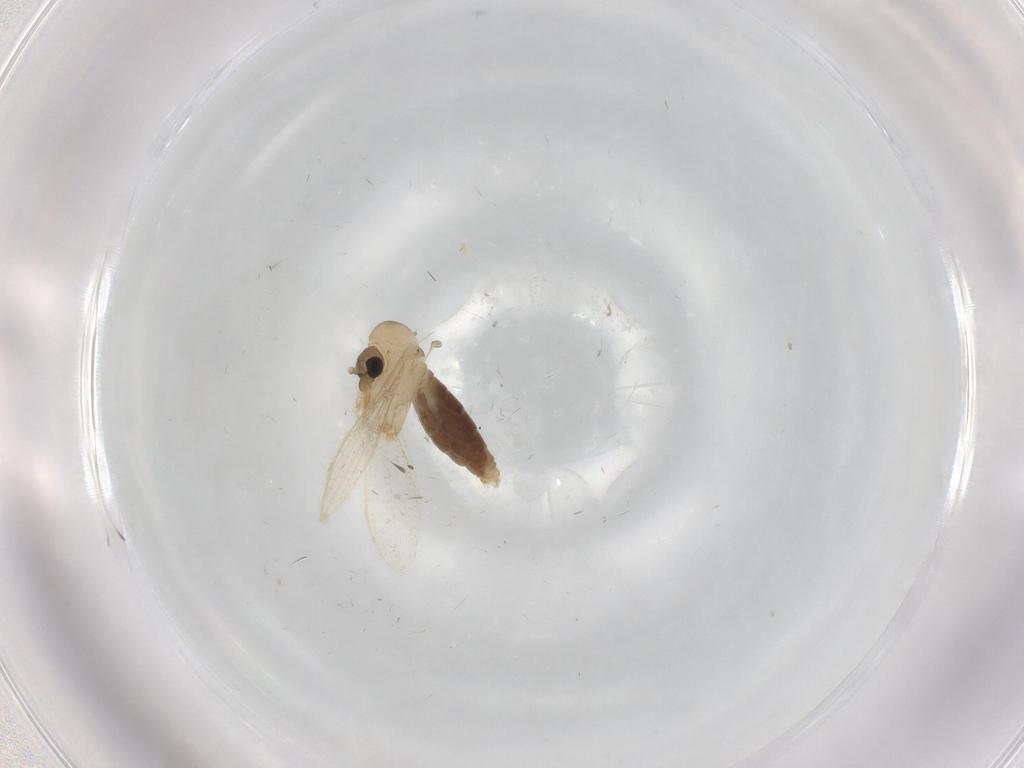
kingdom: Animalia
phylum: Arthropoda
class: Insecta
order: Diptera
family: Psychodidae
